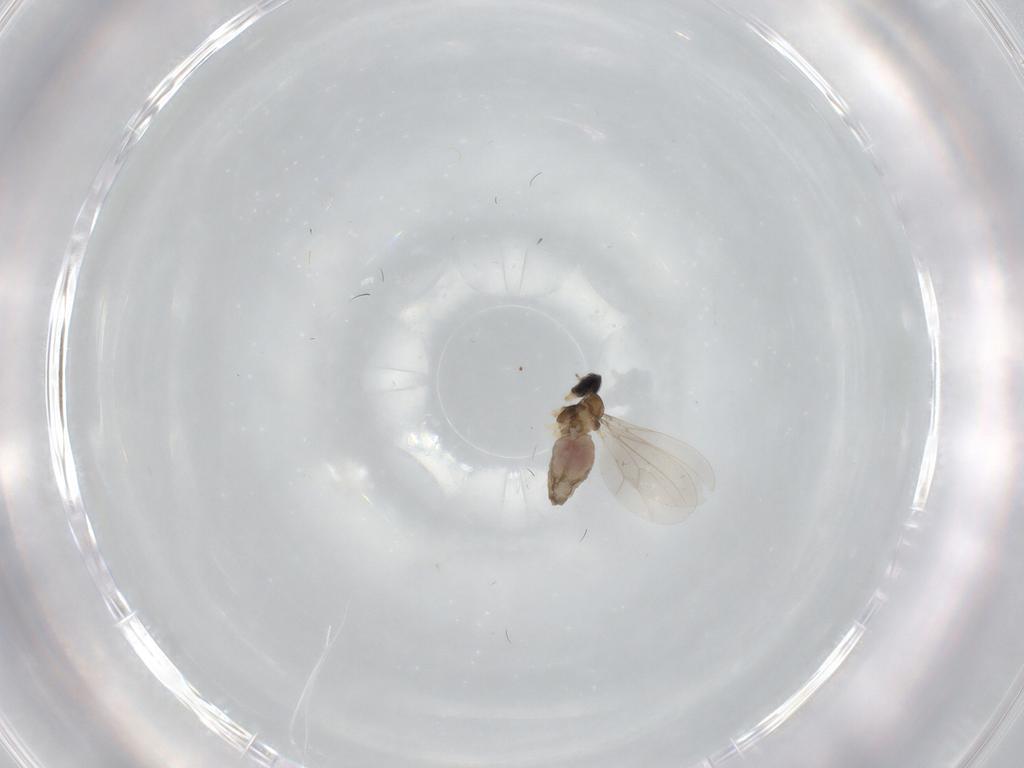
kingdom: Animalia
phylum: Arthropoda
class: Insecta
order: Diptera
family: Cecidomyiidae
